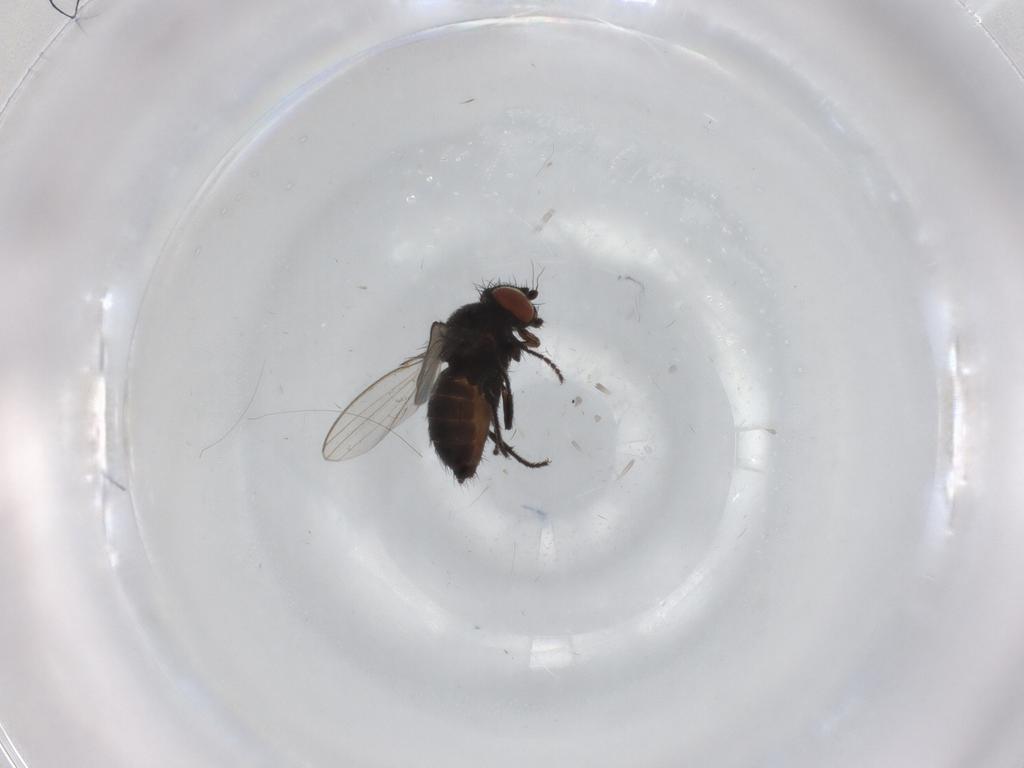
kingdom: Animalia
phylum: Arthropoda
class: Insecta
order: Diptera
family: Milichiidae
